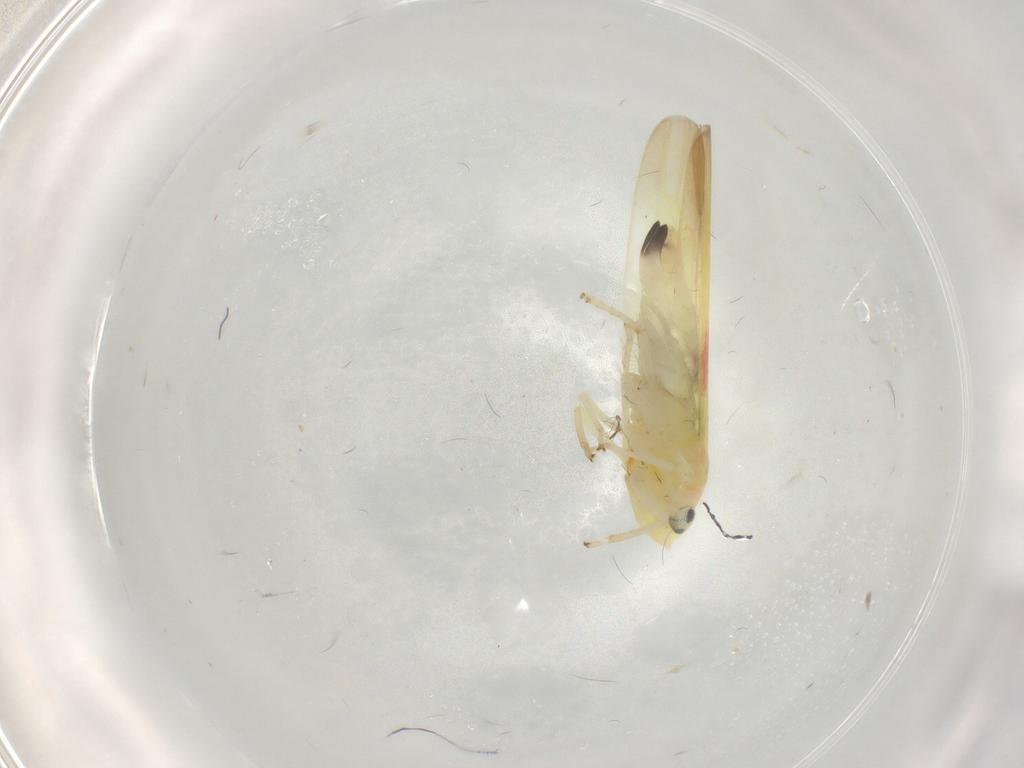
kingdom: Animalia
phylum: Arthropoda
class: Insecta
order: Hemiptera
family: Cicadellidae
